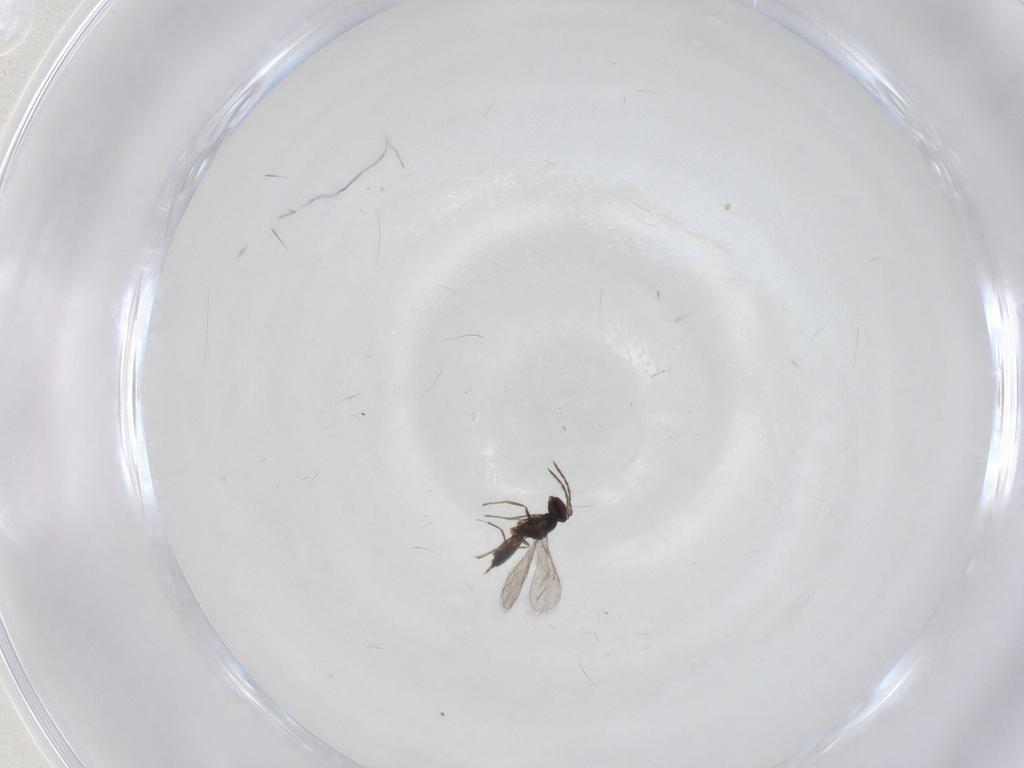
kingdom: Animalia
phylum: Arthropoda
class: Insecta
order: Hymenoptera
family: Eulophidae
